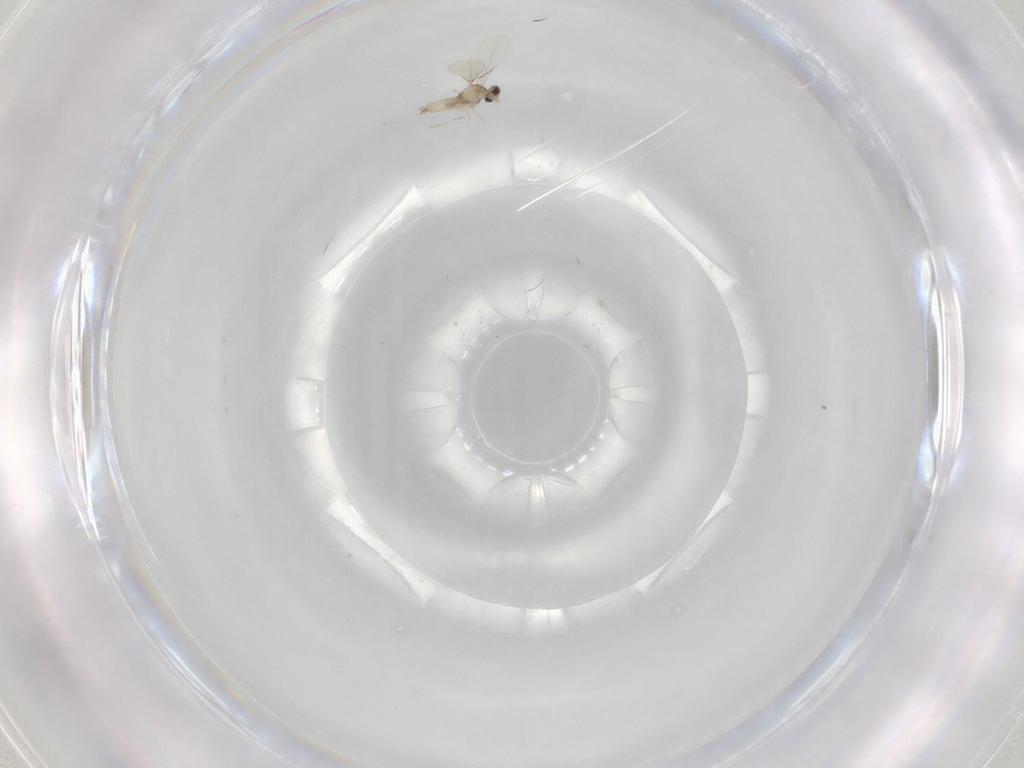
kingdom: Animalia
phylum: Arthropoda
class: Insecta
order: Diptera
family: Cecidomyiidae
